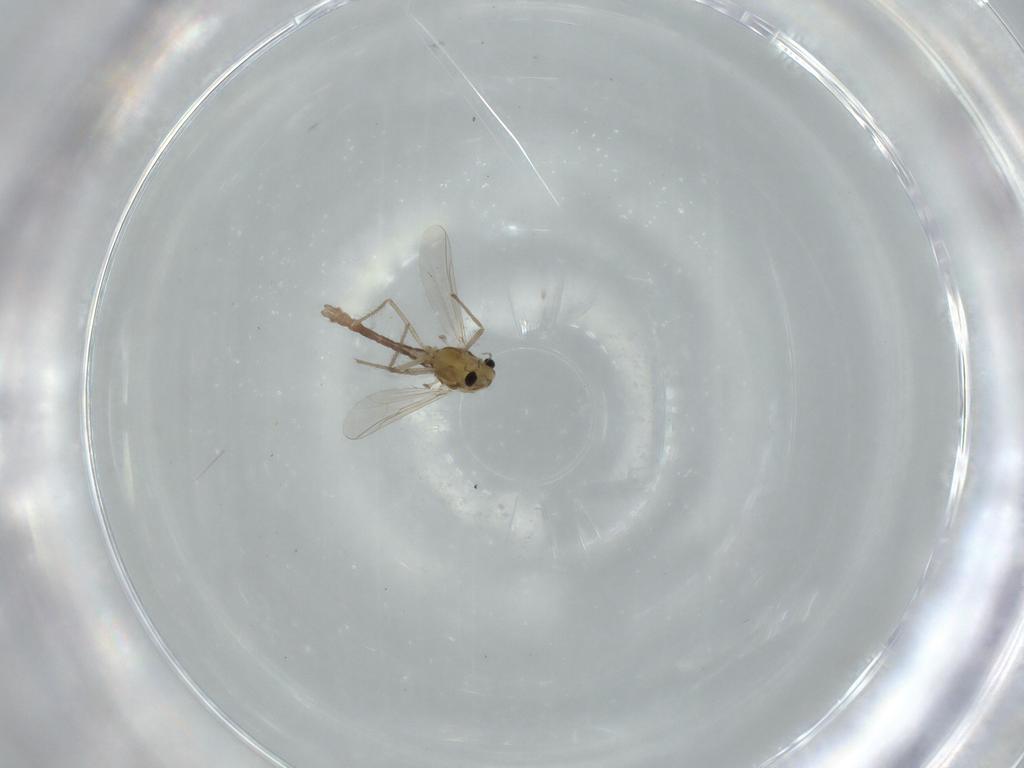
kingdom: Animalia
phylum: Arthropoda
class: Insecta
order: Diptera
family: Chironomidae
